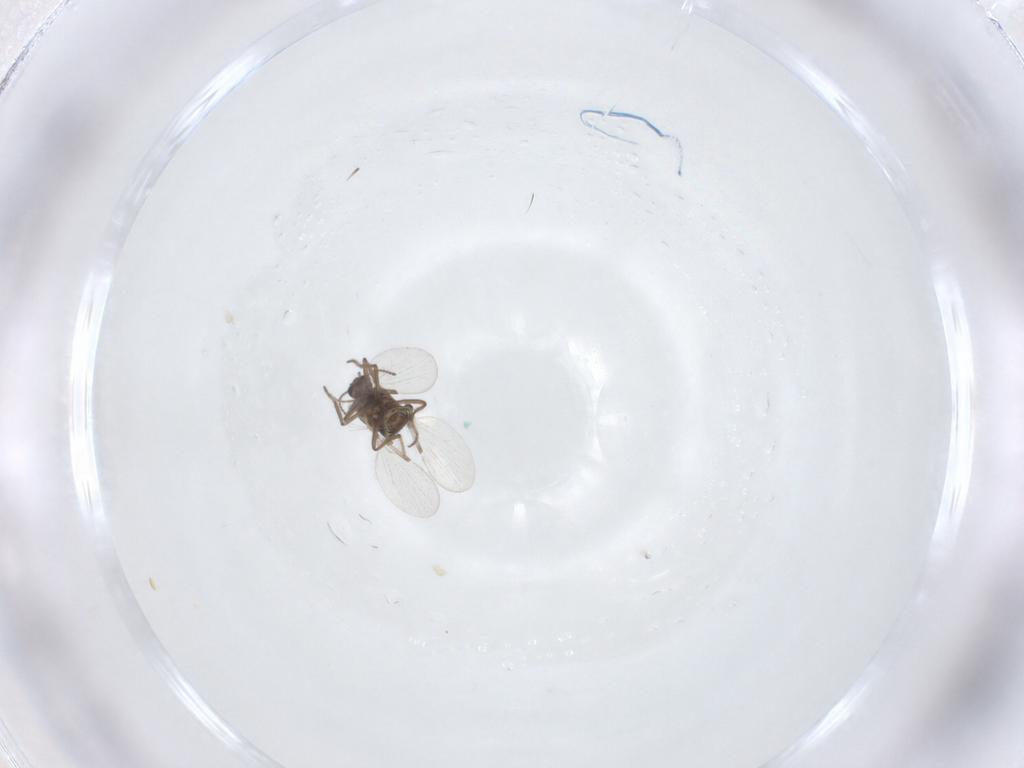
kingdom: Animalia
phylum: Arthropoda
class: Insecta
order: Diptera
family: Ceratopogonidae
